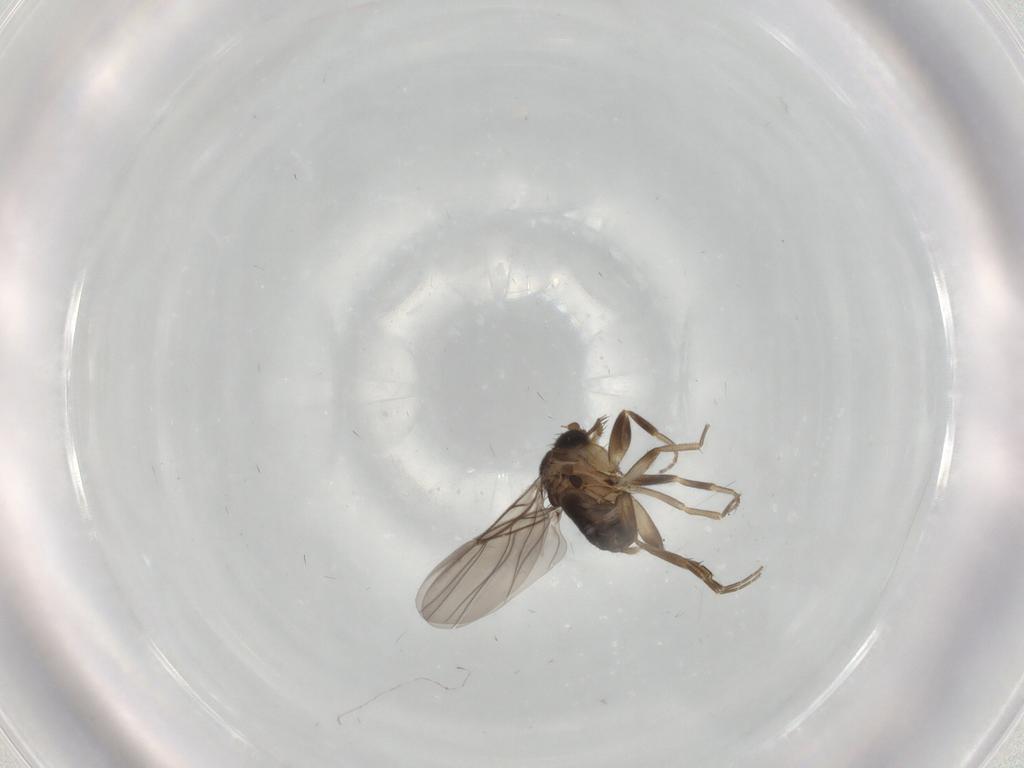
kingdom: Animalia
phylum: Arthropoda
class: Insecta
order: Diptera
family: Cecidomyiidae
